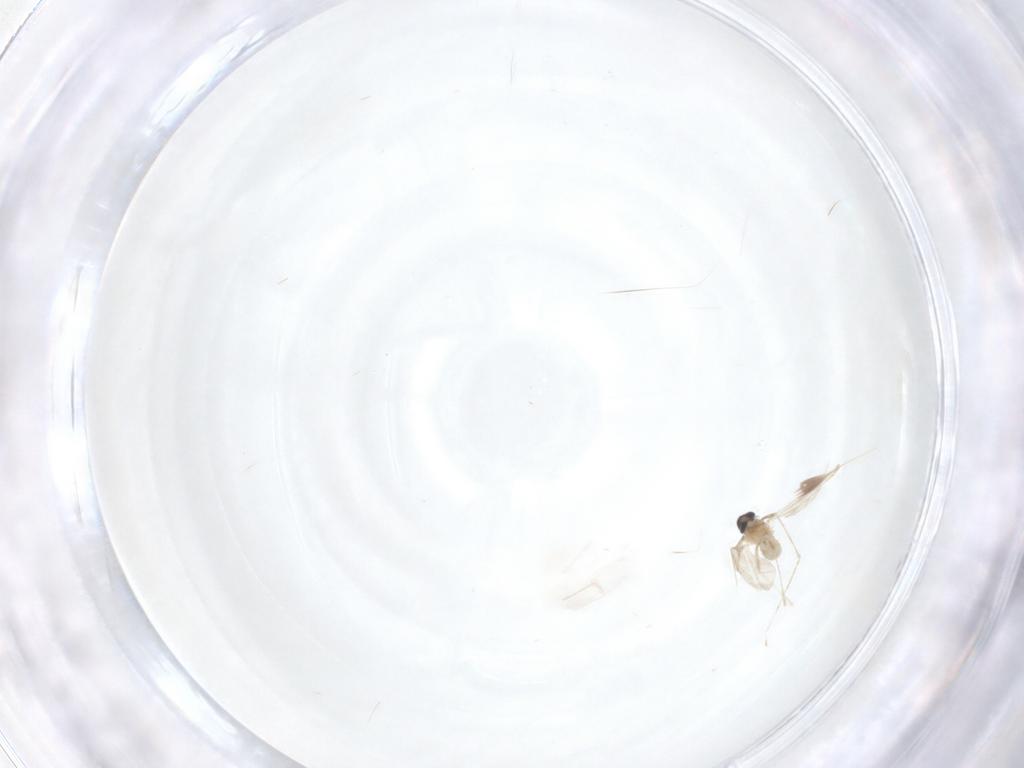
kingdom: Animalia
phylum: Arthropoda
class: Insecta
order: Diptera
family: Cecidomyiidae
